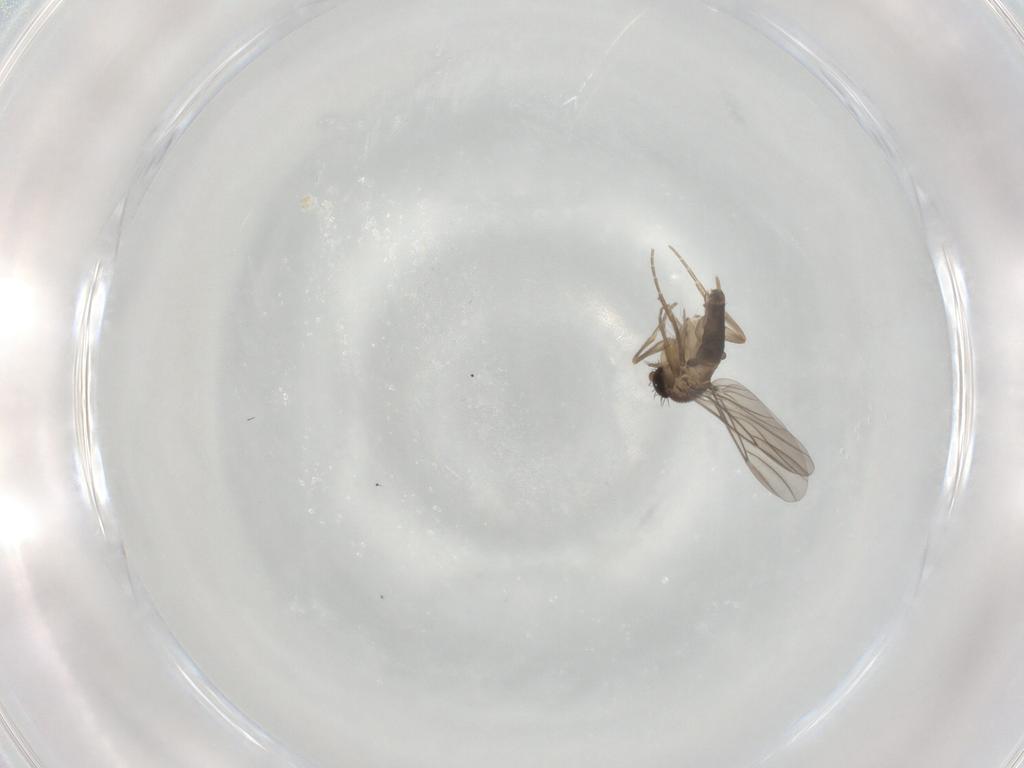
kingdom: Animalia
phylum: Arthropoda
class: Insecta
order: Diptera
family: Phoridae
